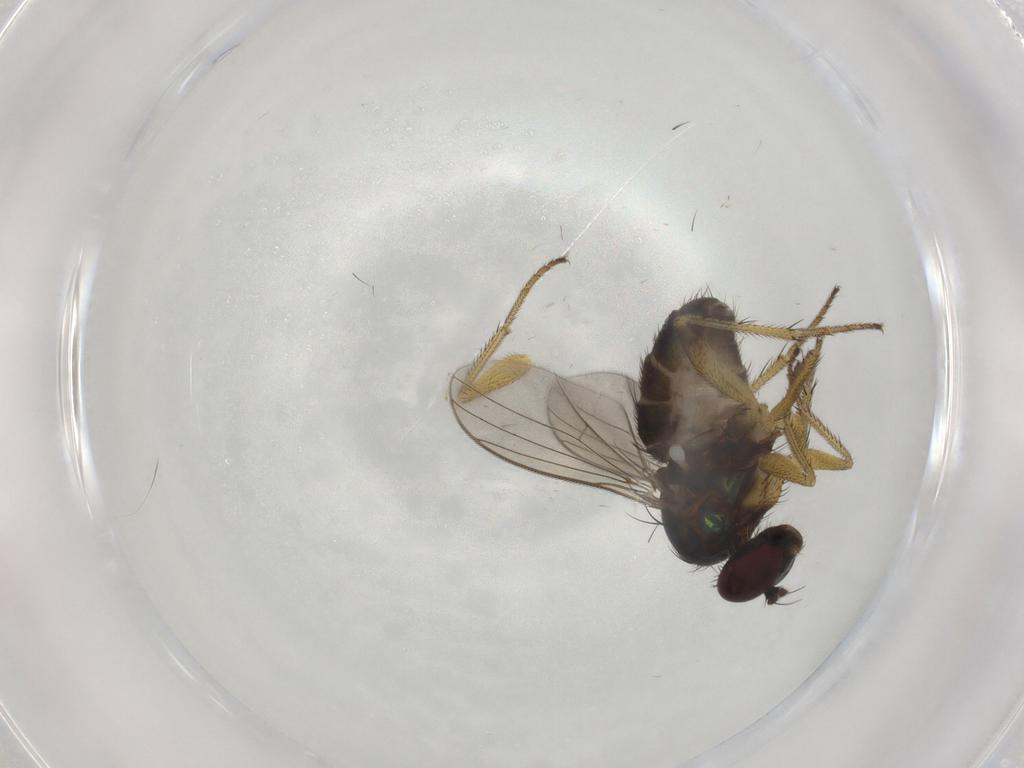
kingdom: Animalia
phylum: Arthropoda
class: Insecta
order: Diptera
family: Dolichopodidae
